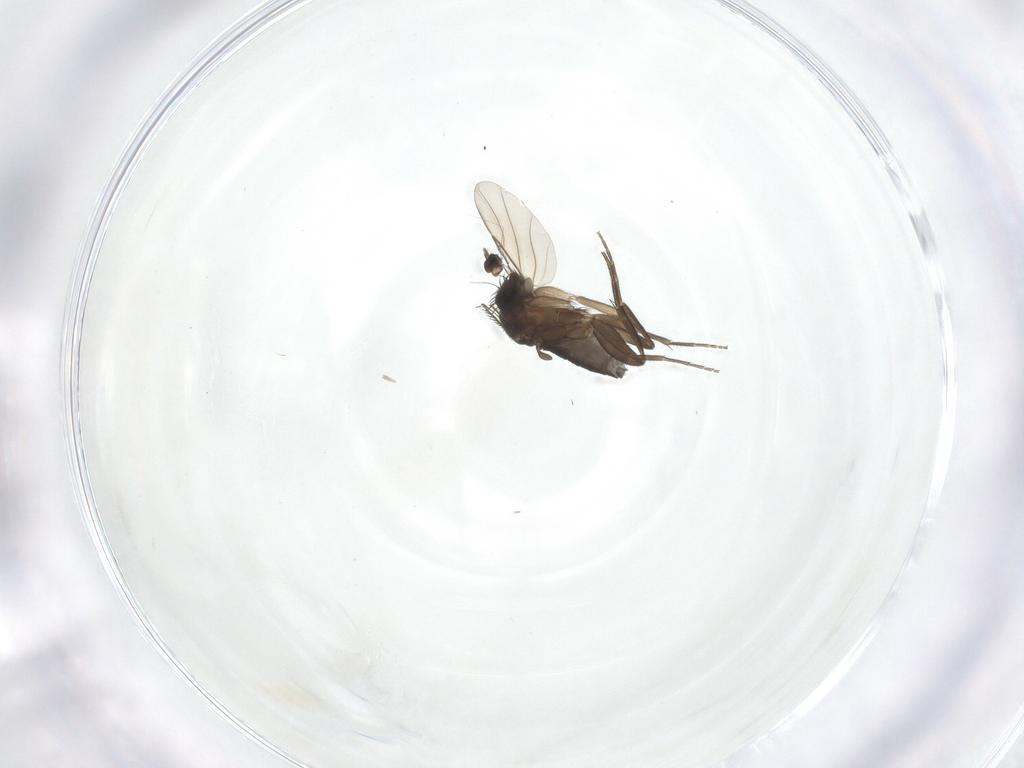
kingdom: Animalia
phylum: Arthropoda
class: Insecta
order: Diptera
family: Phoridae
